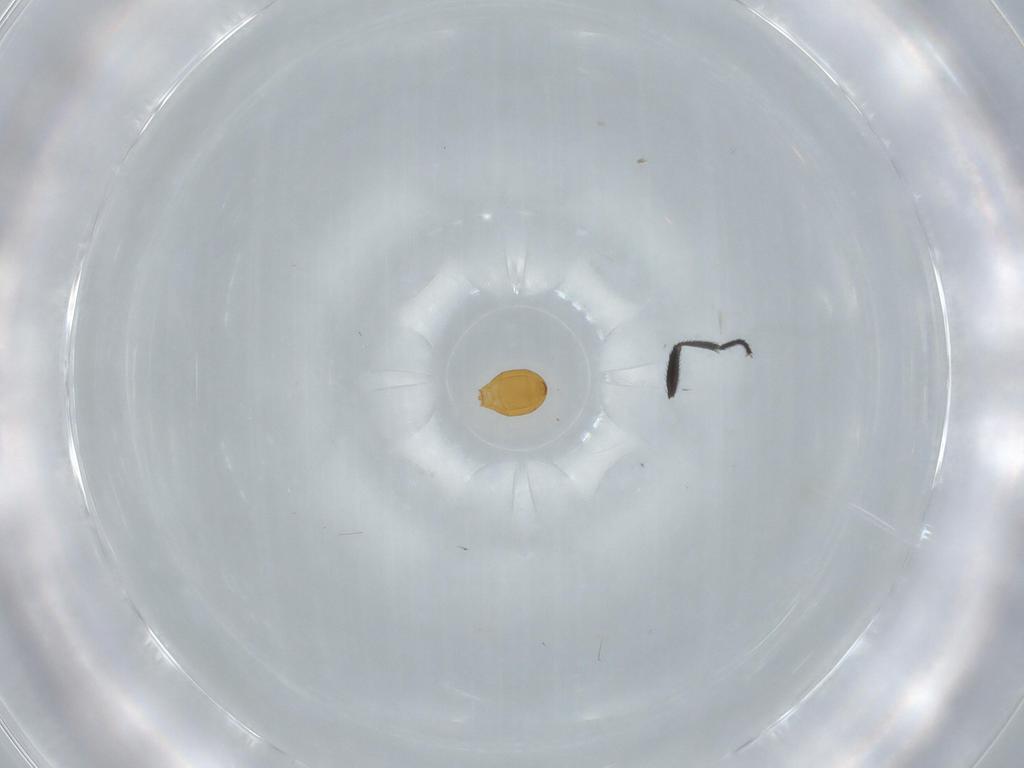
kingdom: Animalia
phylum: Arthropoda
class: Insecta
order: Hymenoptera
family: Scelionidae
